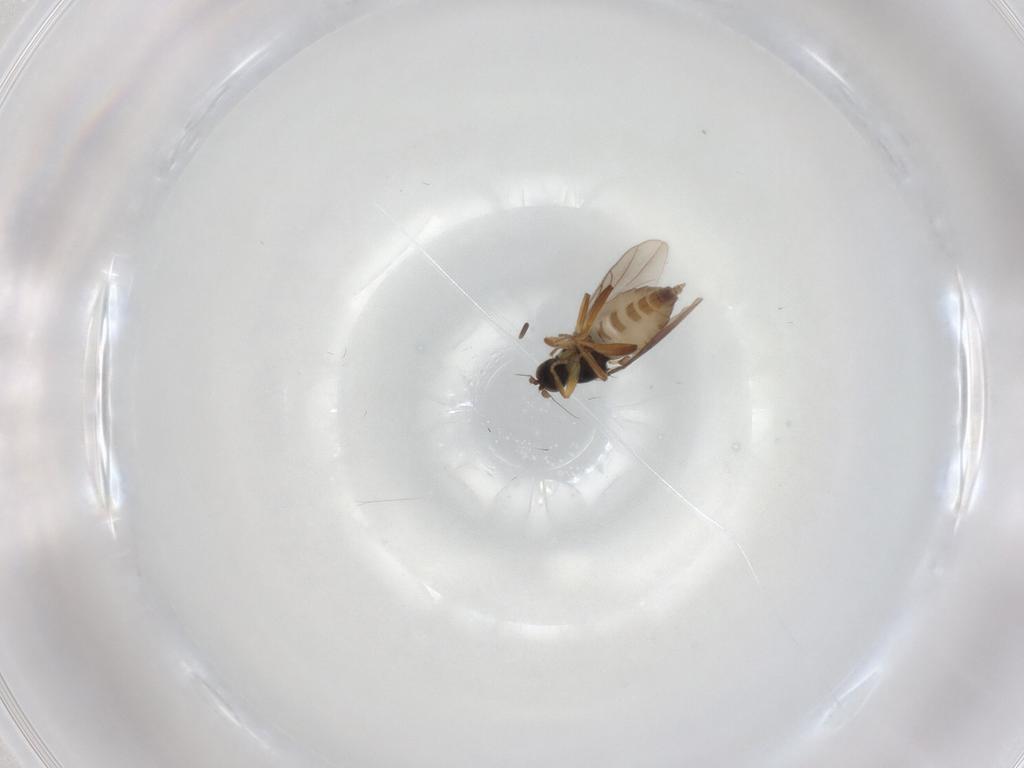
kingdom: Animalia
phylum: Arthropoda
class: Insecta
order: Diptera
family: Hybotidae
